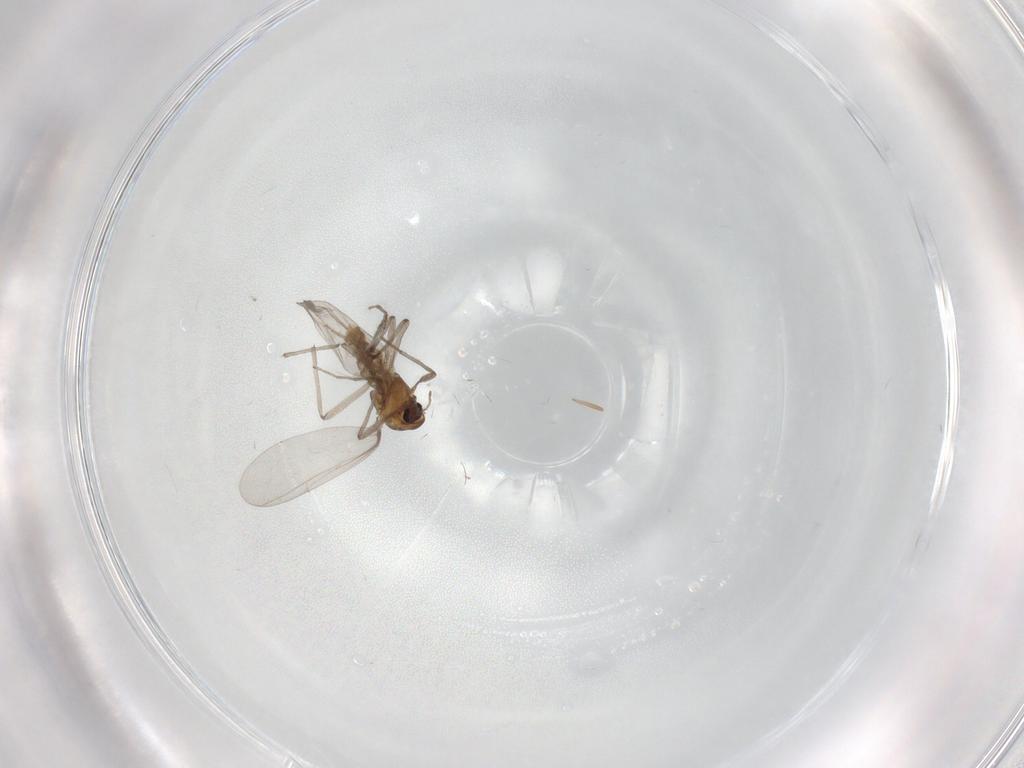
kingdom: Animalia
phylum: Arthropoda
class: Insecta
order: Diptera
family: Chironomidae
